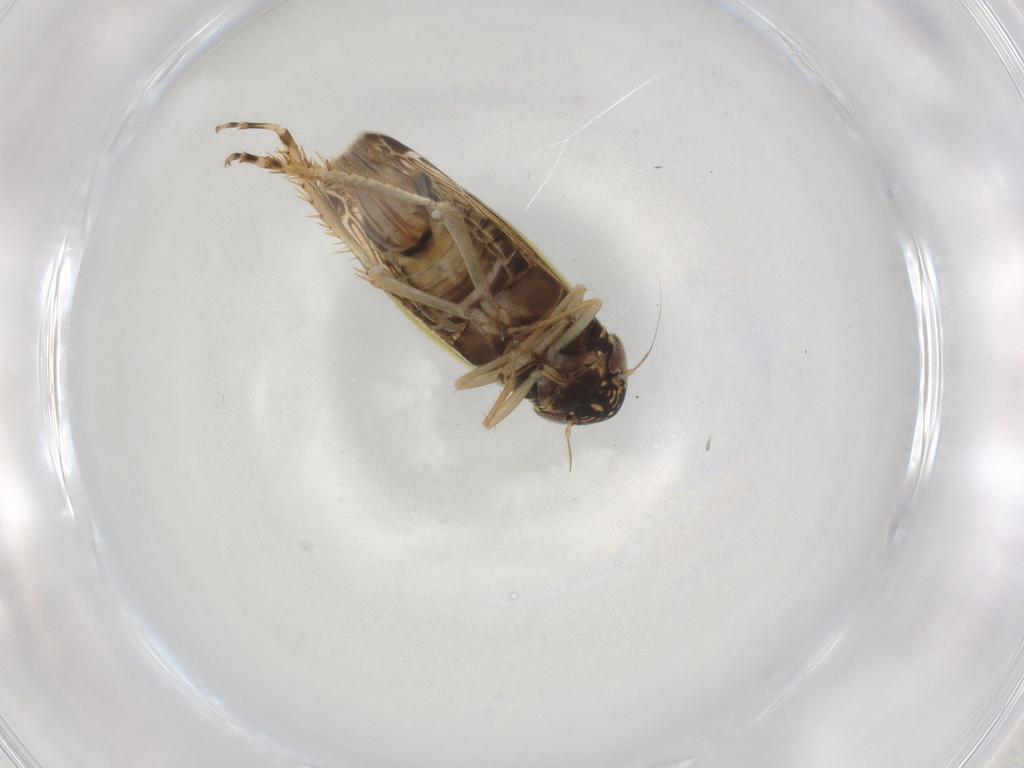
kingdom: Animalia
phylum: Arthropoda
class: Insecta
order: Hemiptera
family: Cicadellidae
